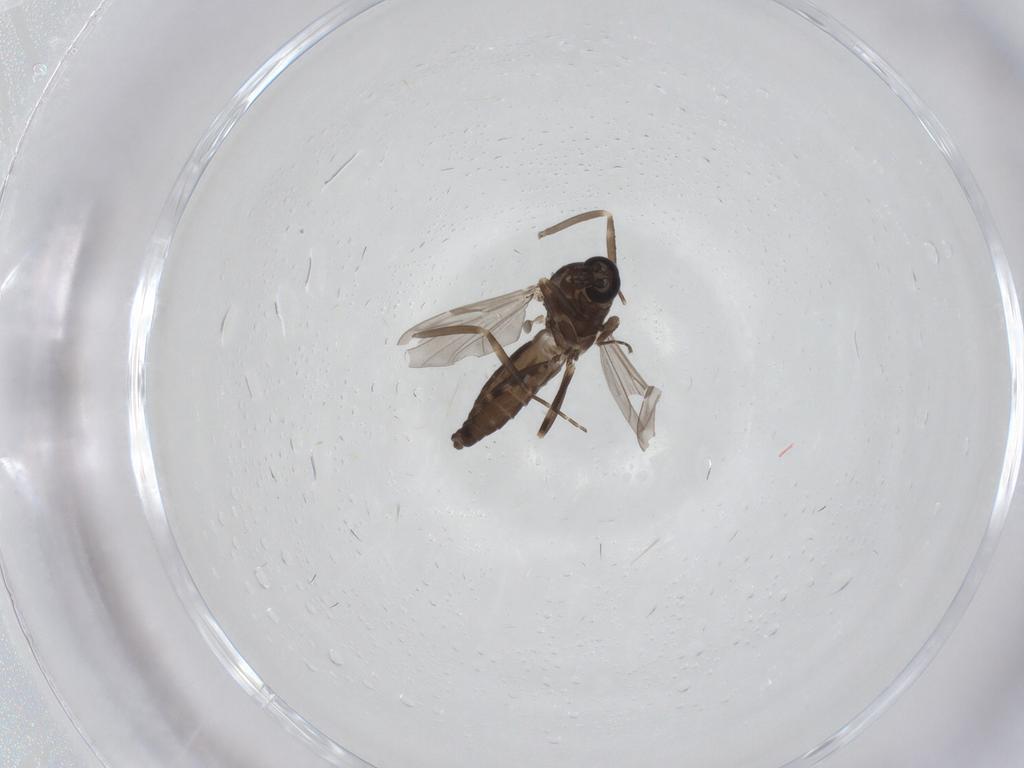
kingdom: Animalia
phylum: Arthropoda
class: Insecta
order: Diptera
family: Ceratopogonidae
